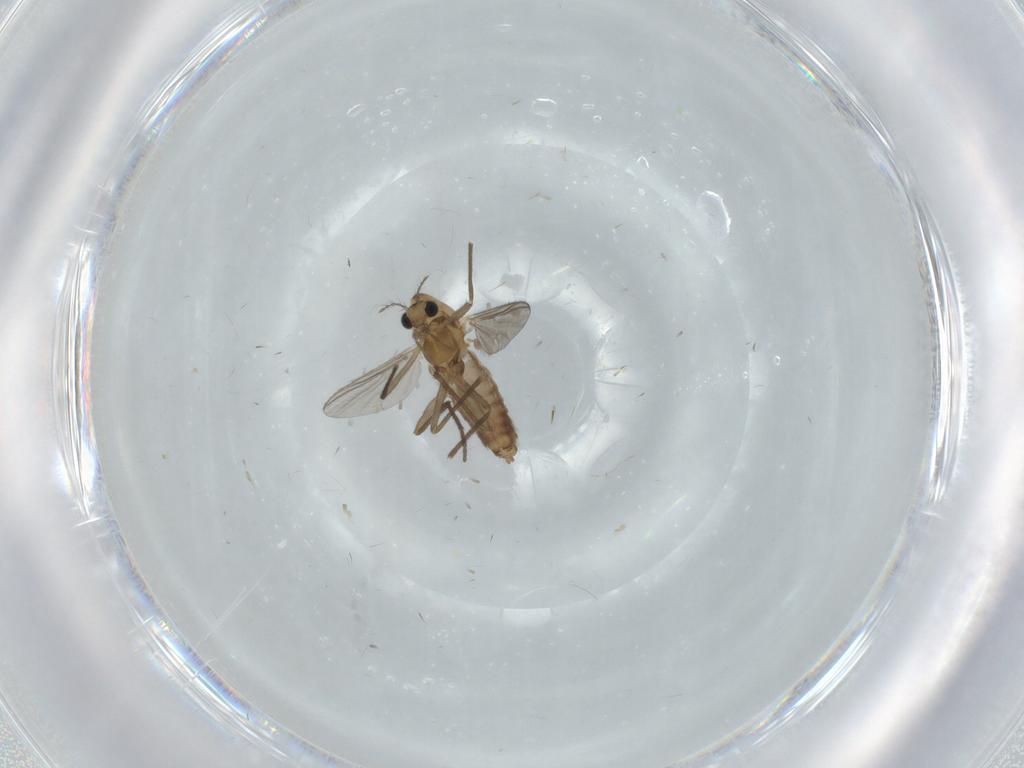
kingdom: Animalia
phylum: Arthropoda
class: Insecta
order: Diptera
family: Chironomidae
